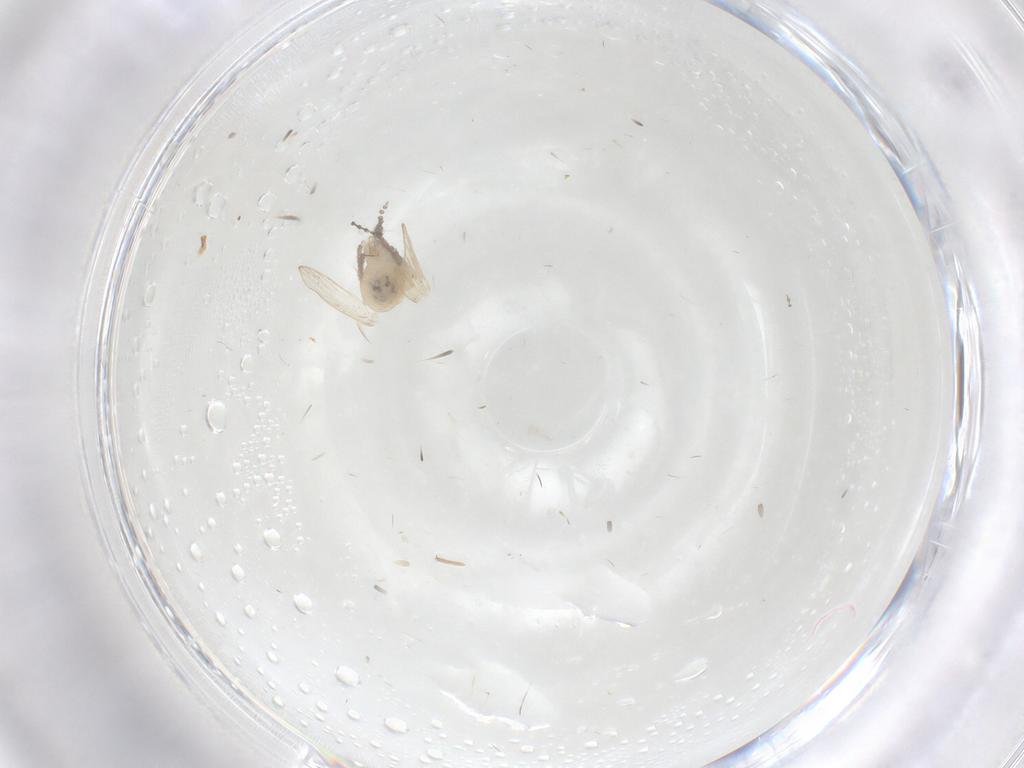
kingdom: Animalia
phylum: Arthropoda
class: Insecta
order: Diptera
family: Psychodidae
